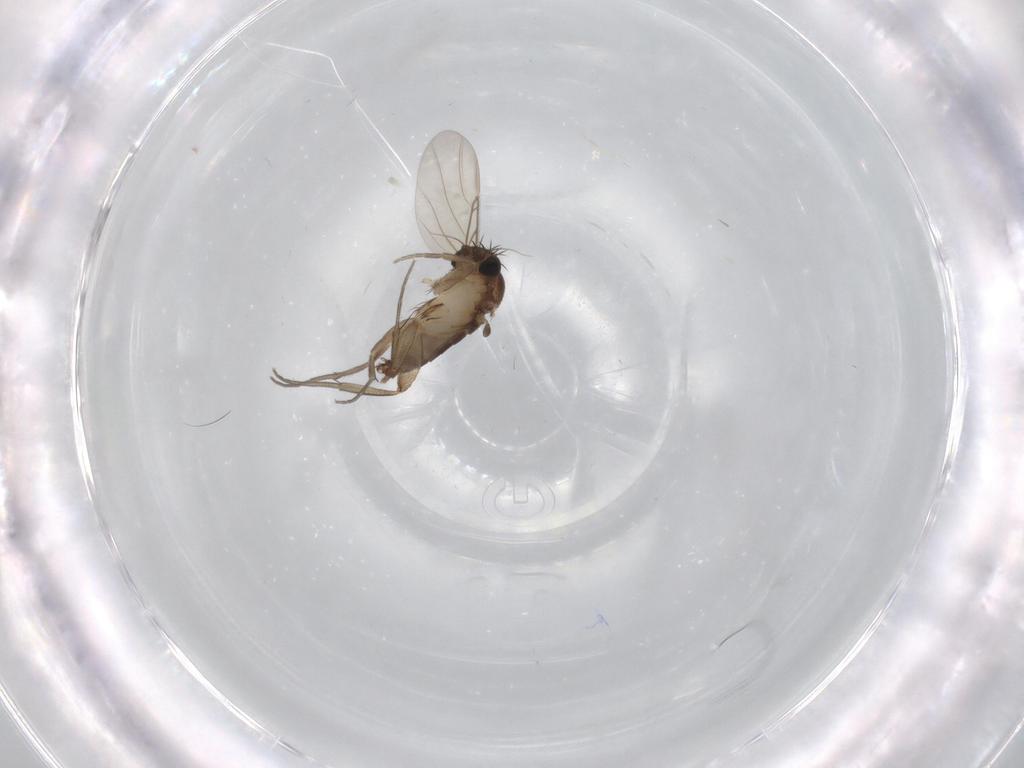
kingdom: Animalia
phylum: Arthropoda
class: Insecta
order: Diptera
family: Phoridae
